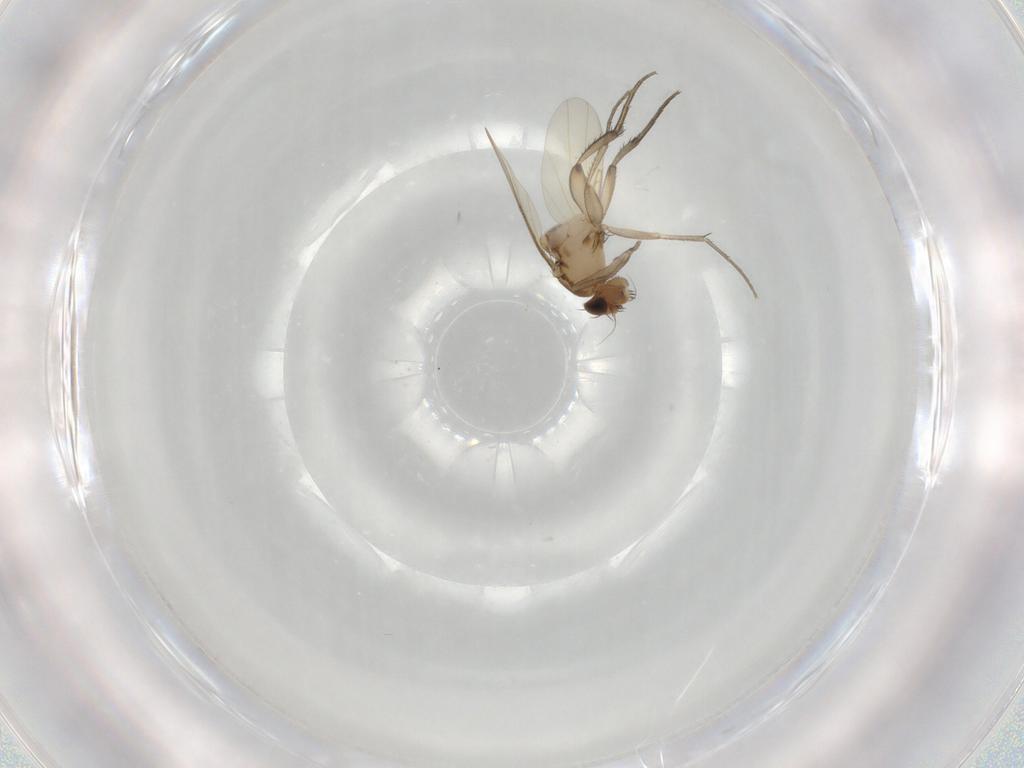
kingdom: Animalia
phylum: Arthropoda
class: Insecta
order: Diptera
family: Phoridae
